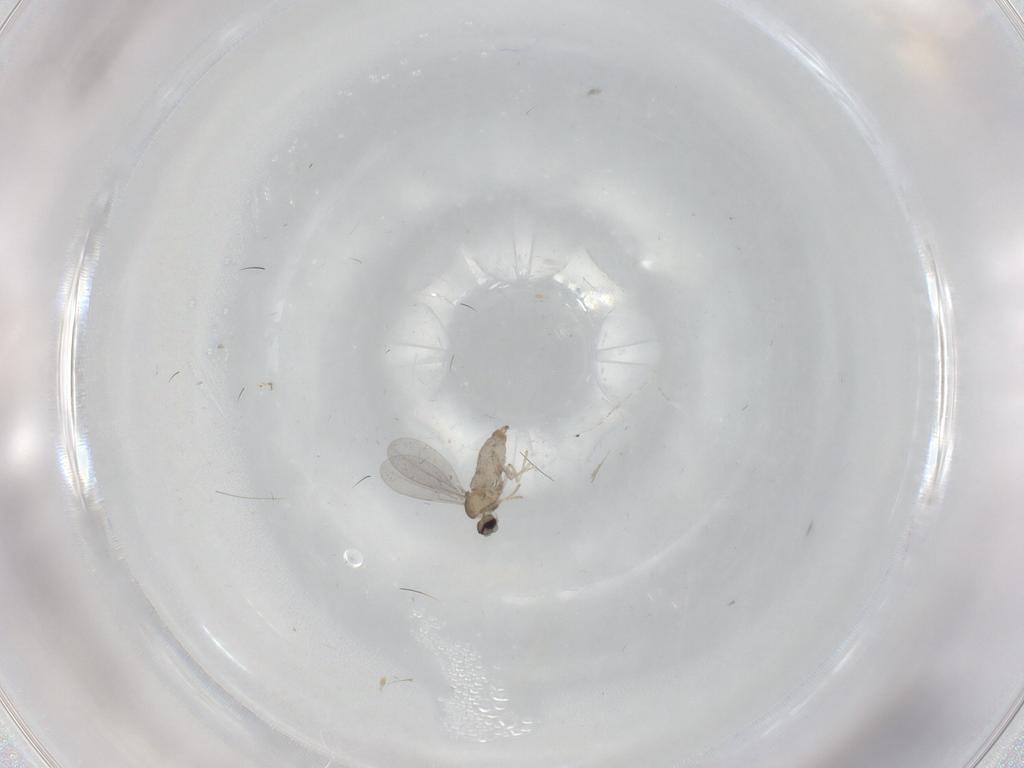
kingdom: Animalia
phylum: Arthropoda
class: Insecta
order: Diptera
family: Cecidomyiidae
